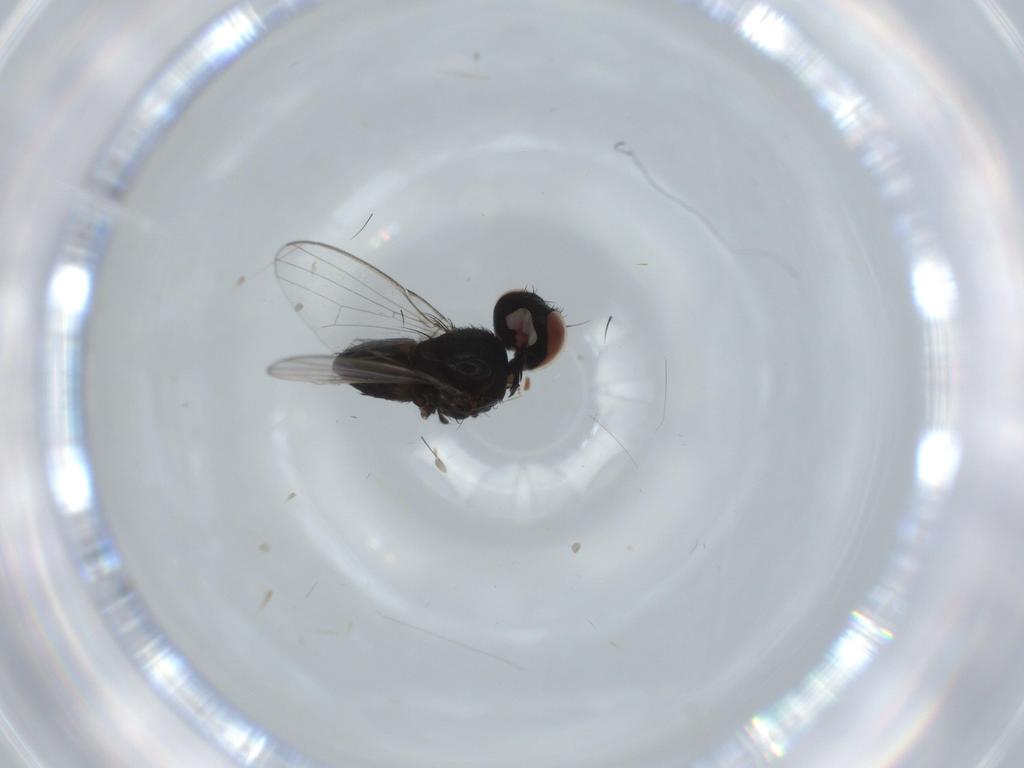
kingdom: Animalia
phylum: Arthropoda
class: Insecta
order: Diptera
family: Milichiidae
